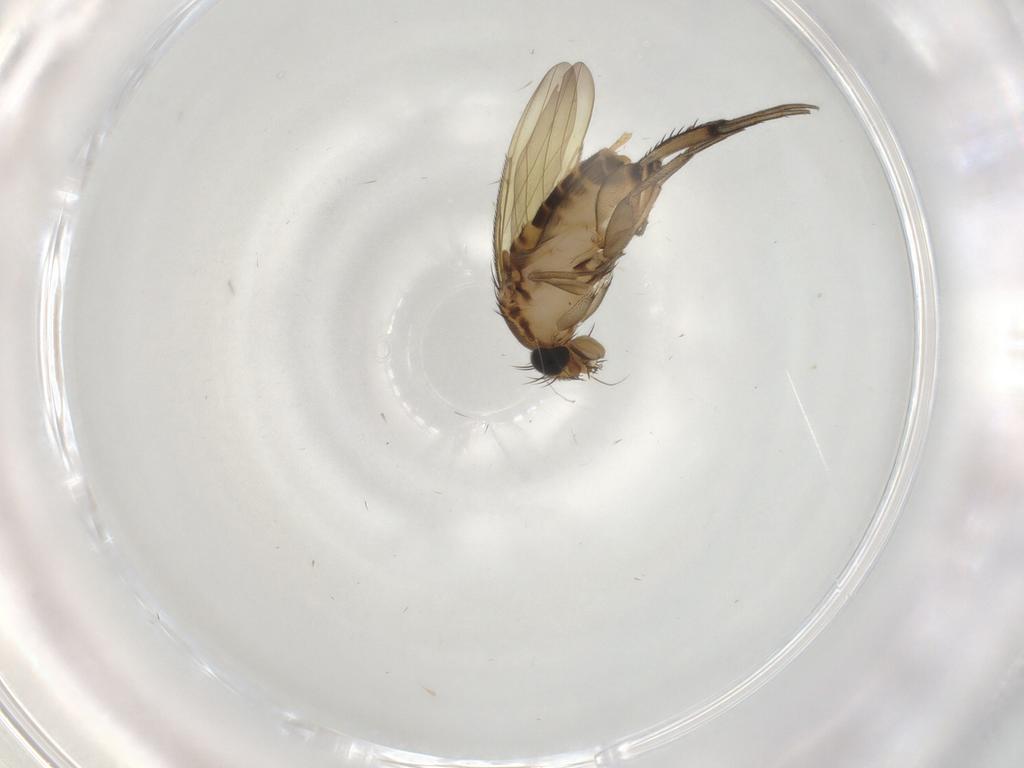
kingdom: Animalia
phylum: Arthropoda
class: Insecta
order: Diptera
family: Phoridae
